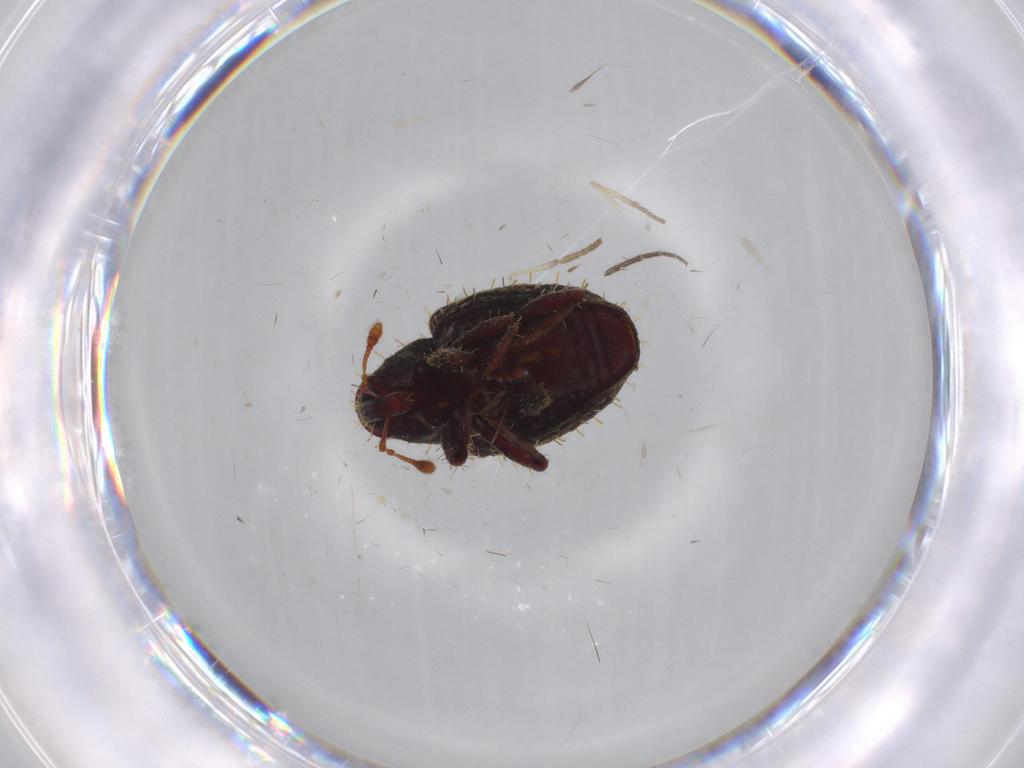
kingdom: Animalia
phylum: Arthropoda
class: Insecta
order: Coleoptera
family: Curculionidae
